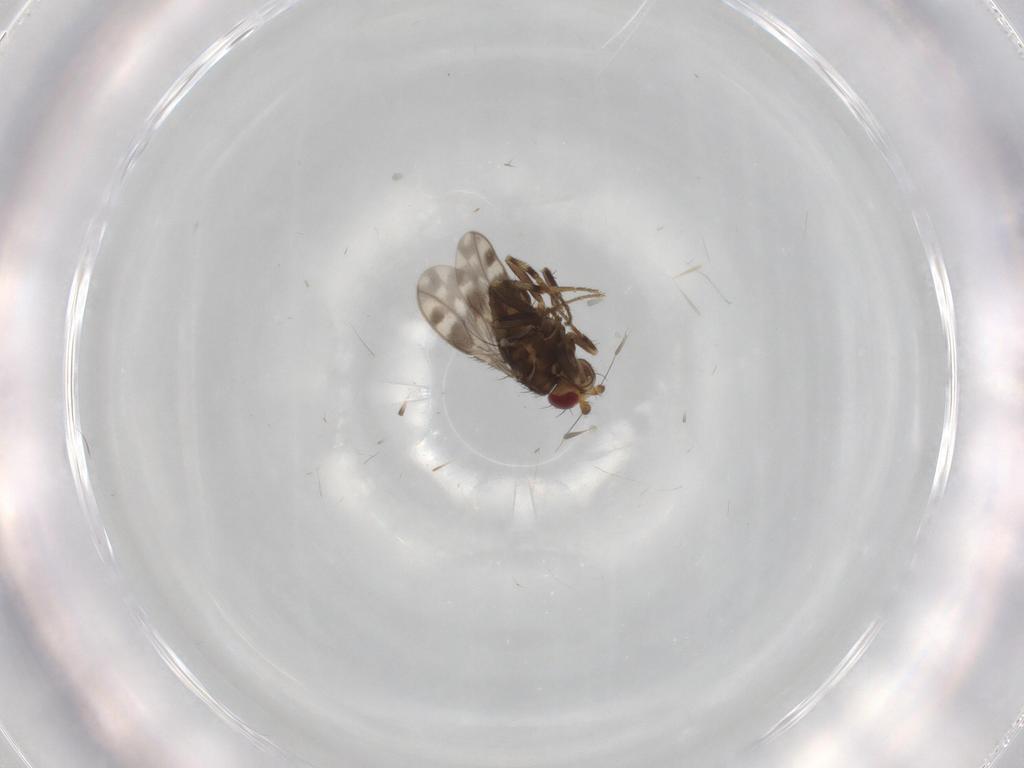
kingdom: Animalia
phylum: Arthropoda
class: Insecta
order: Diptera
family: Sphaeroceridae
